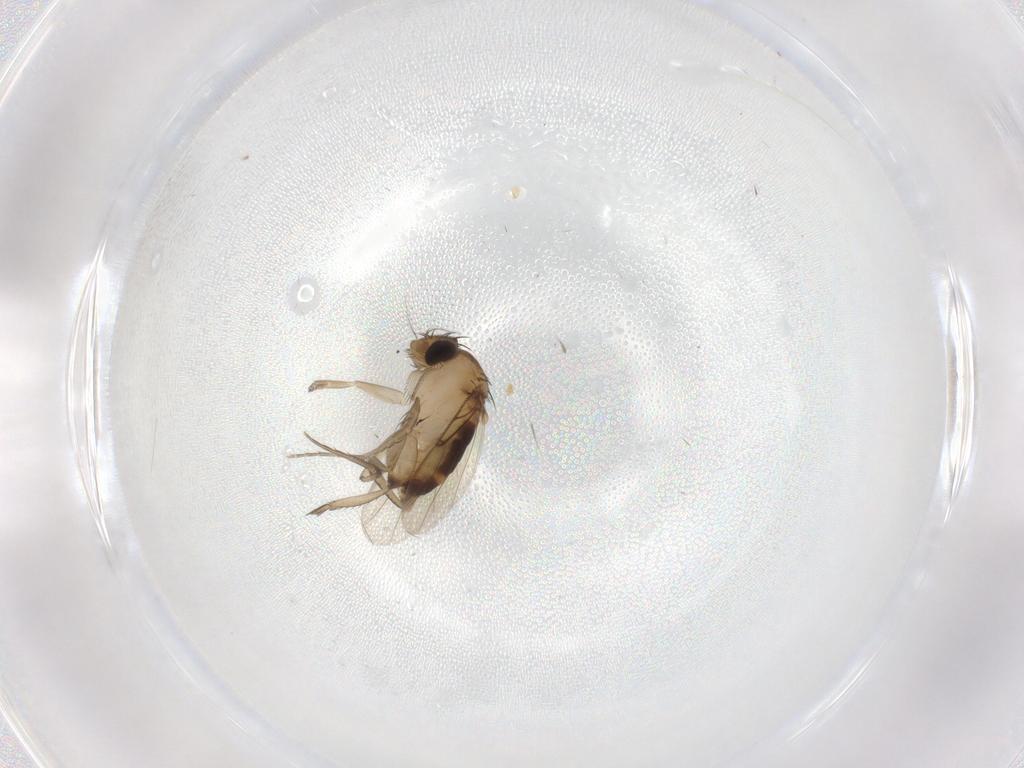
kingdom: Animalia
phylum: Arthropoda
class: Insecta
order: Diptera
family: Phoridae
